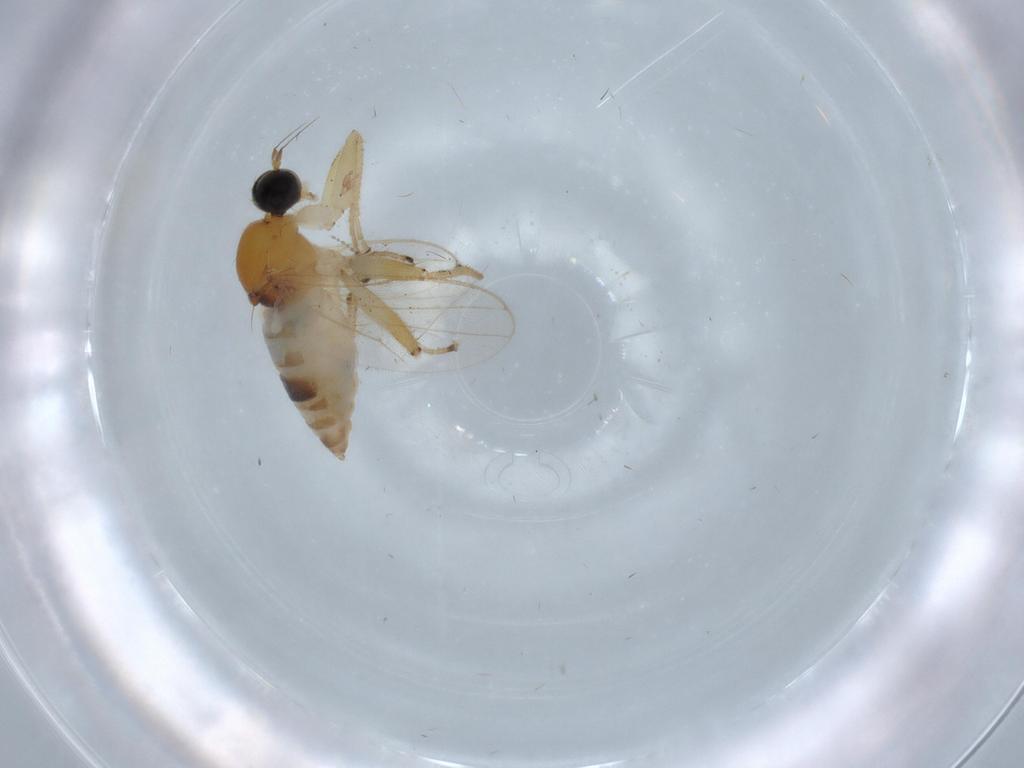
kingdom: Animalia
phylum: Arthropoda
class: Insecta
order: Diptera
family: Hybotidae
